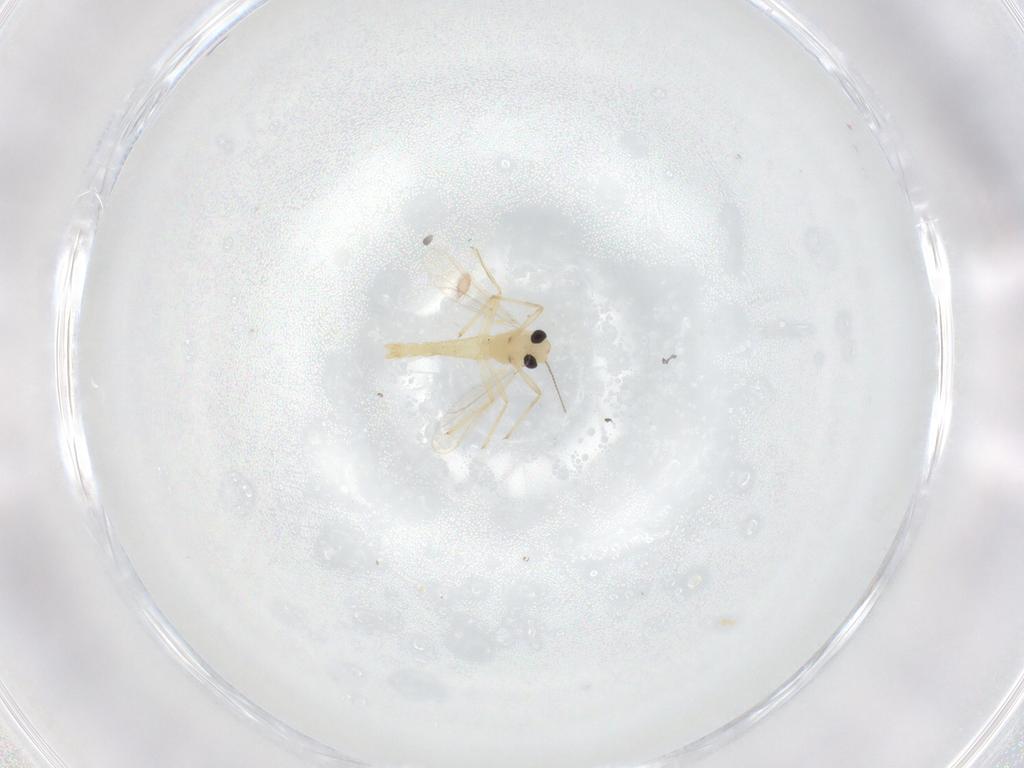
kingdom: Animalia
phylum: Arthropoda
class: Insecta
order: Diptera
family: Chironomidae
